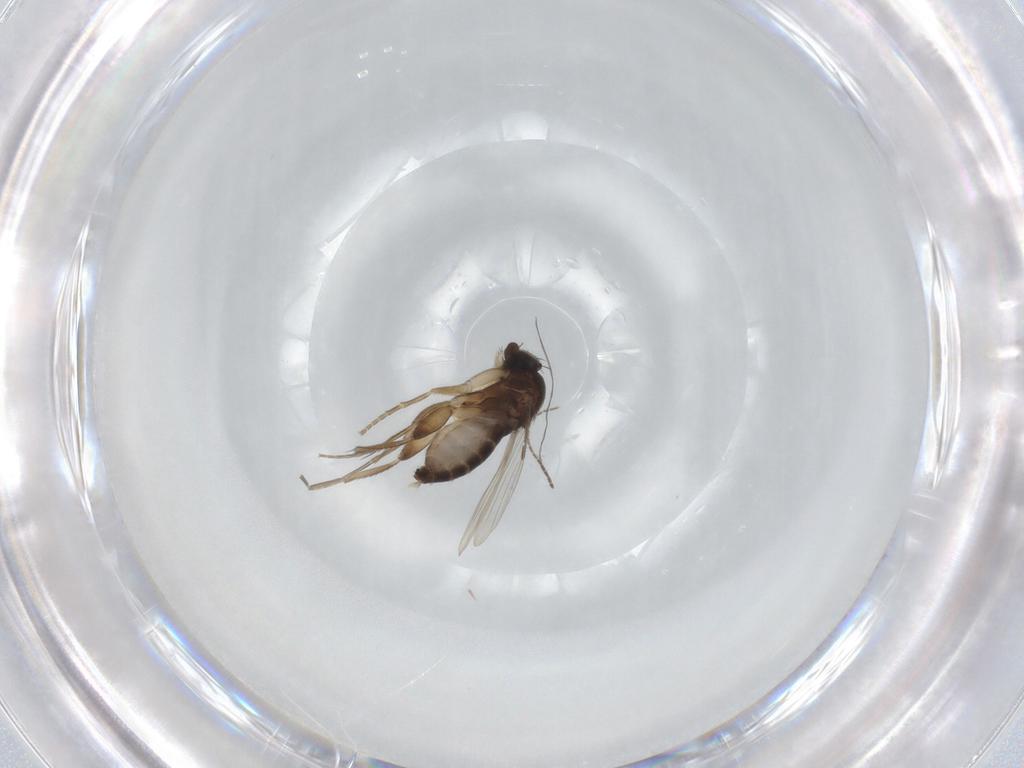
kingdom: Animalia
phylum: Arthropoda
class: Insecta
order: Diptera
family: Phoridae
